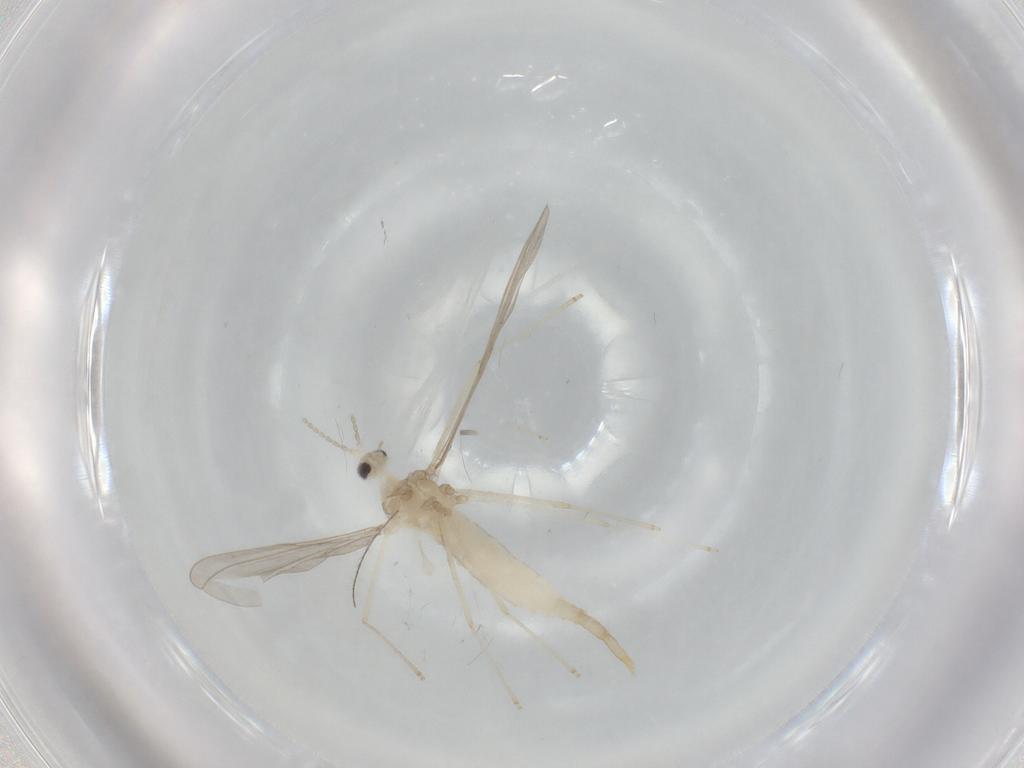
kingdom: Animalia
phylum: Arthropoda
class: Insecta
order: Diptera
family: Cecidomyiidae
